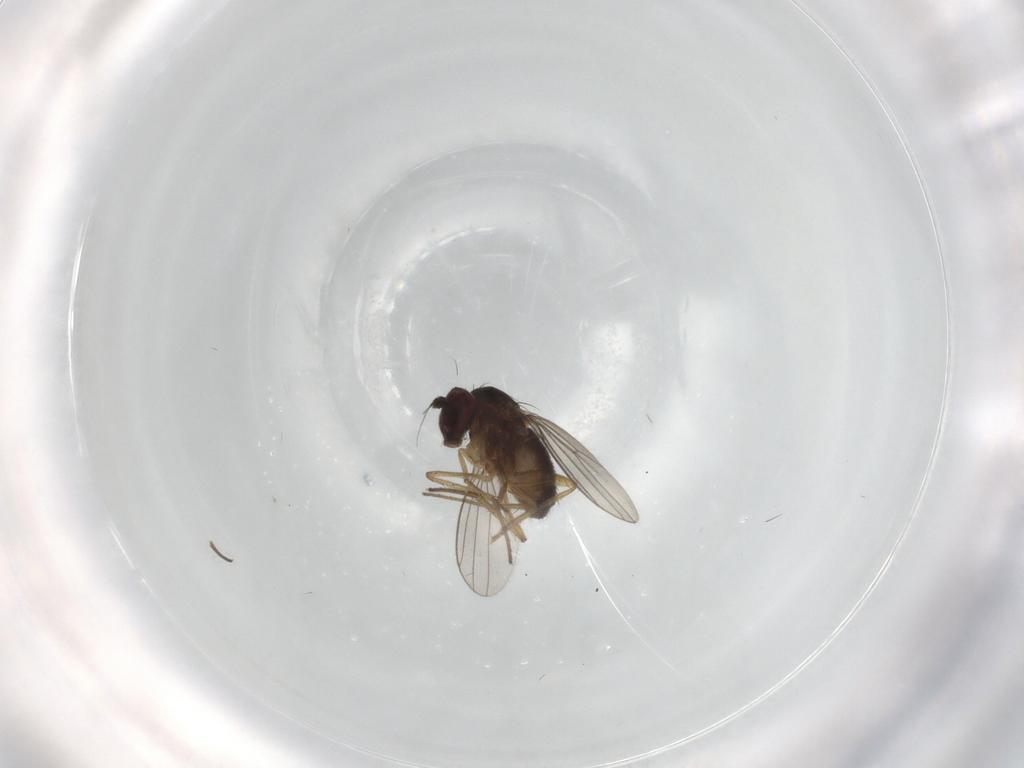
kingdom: Animalia
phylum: Arthropoda
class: Insecta
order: Diptera
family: Dolichopodidae
